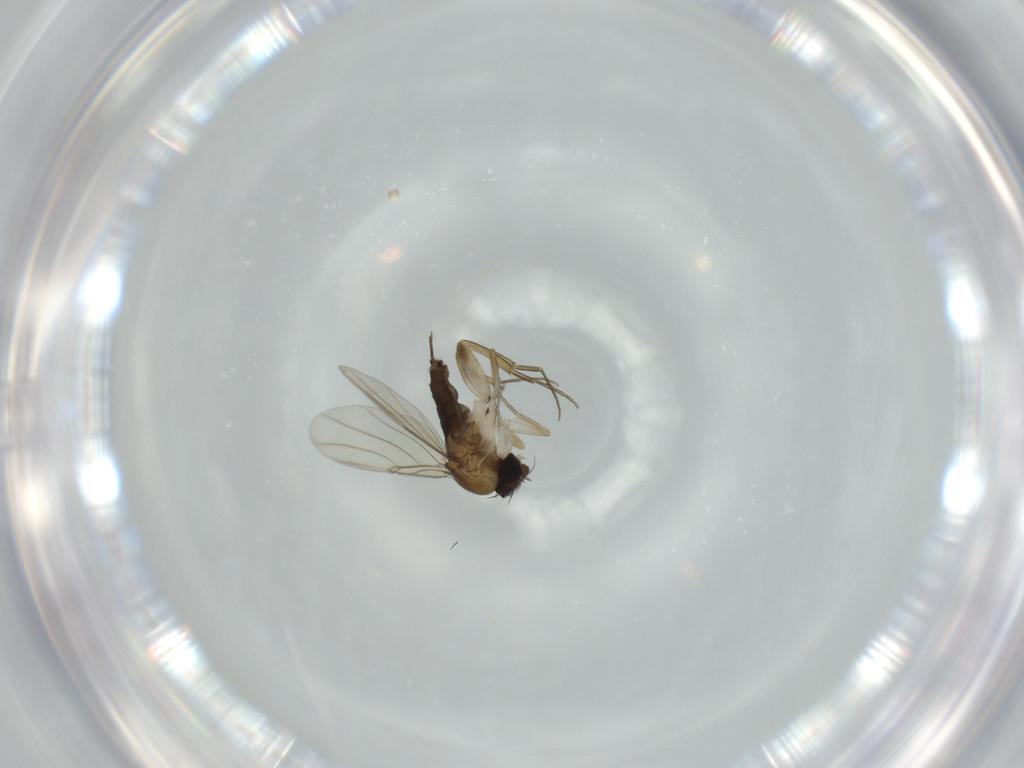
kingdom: Animalia
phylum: Arthropoda
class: Insecta
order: Diptera
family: Phoridae
